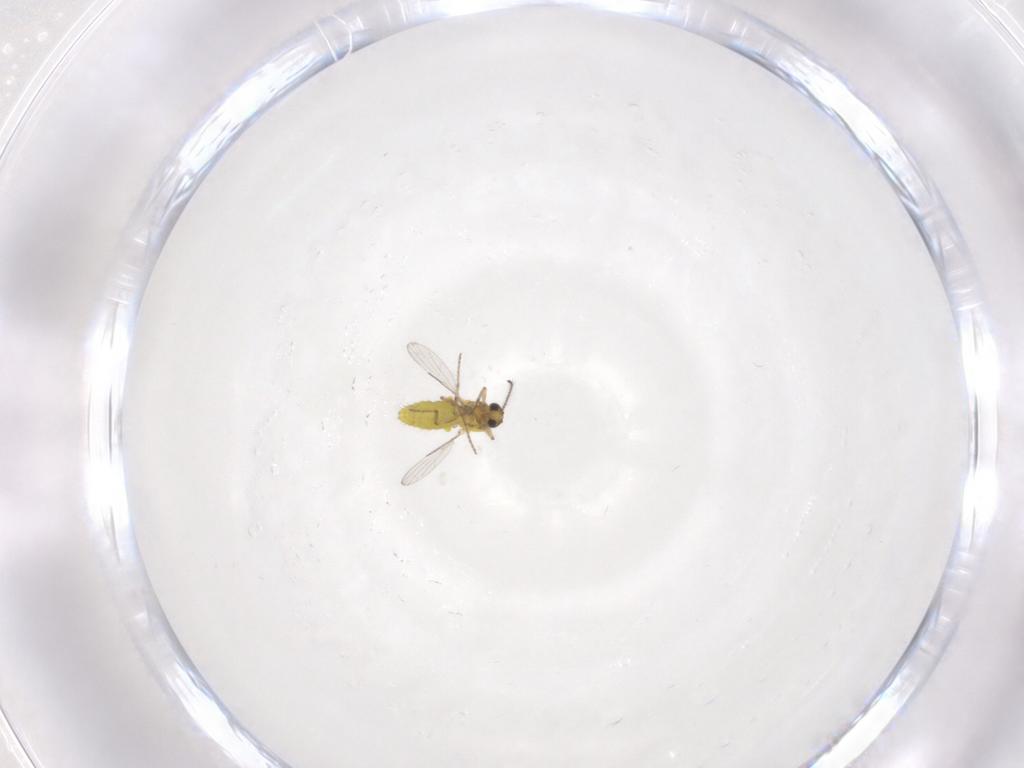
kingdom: Animalia
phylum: Arthropoda
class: Insecta
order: Diptera
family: Ceratopogonidae
